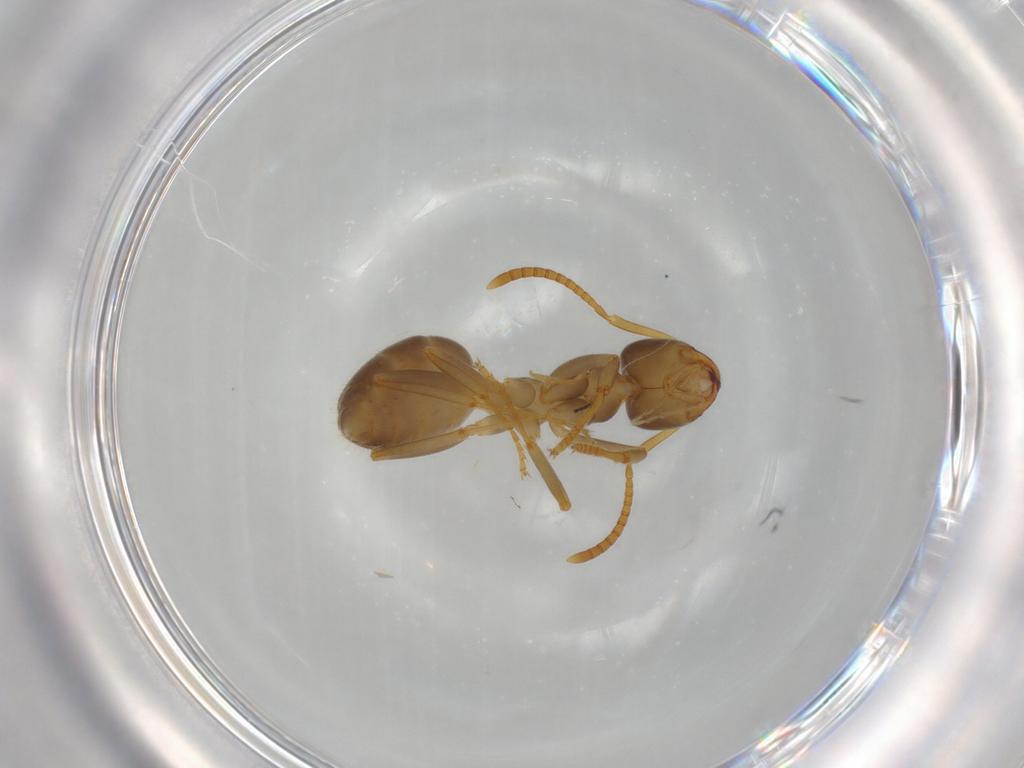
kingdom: Animalia
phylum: Arthropoda
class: Insecta
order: Hymenoptera
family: Formicidae
